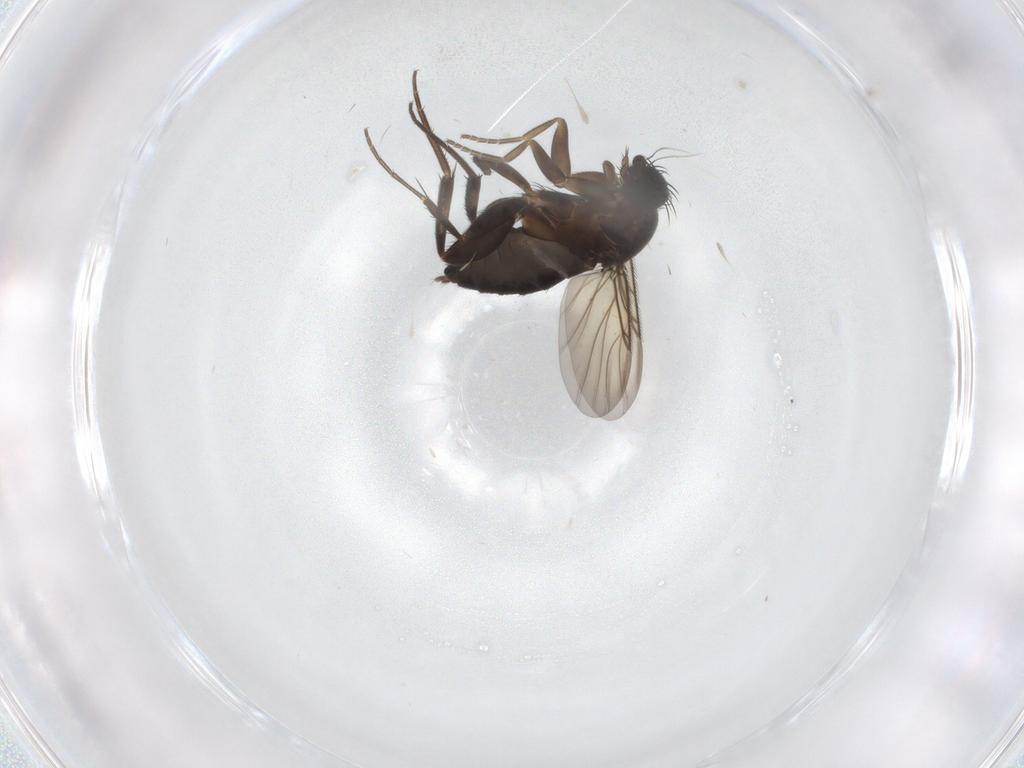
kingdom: Animalia
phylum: Arthropoda
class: Insecta
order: Diptera
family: Phoridae
